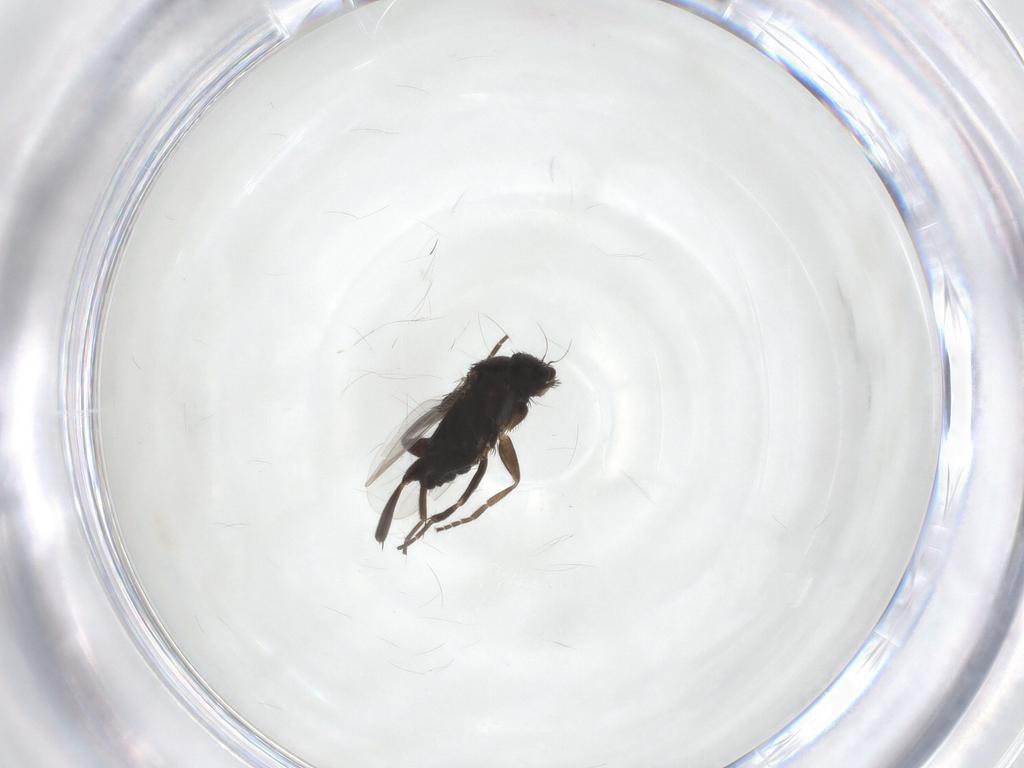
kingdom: Animalia
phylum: Arthropoda
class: Insecta
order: Diptera
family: Phoridae
